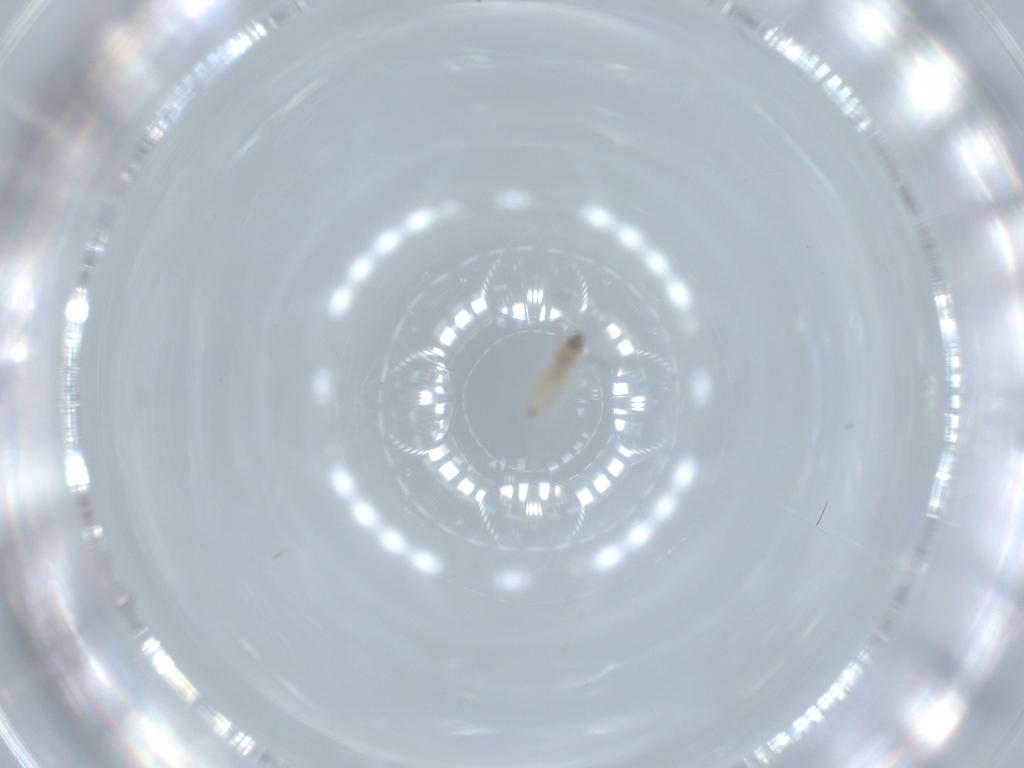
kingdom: Animalia
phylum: Arthropoda
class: Insecta
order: Diptera
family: Cecidomyiidae
